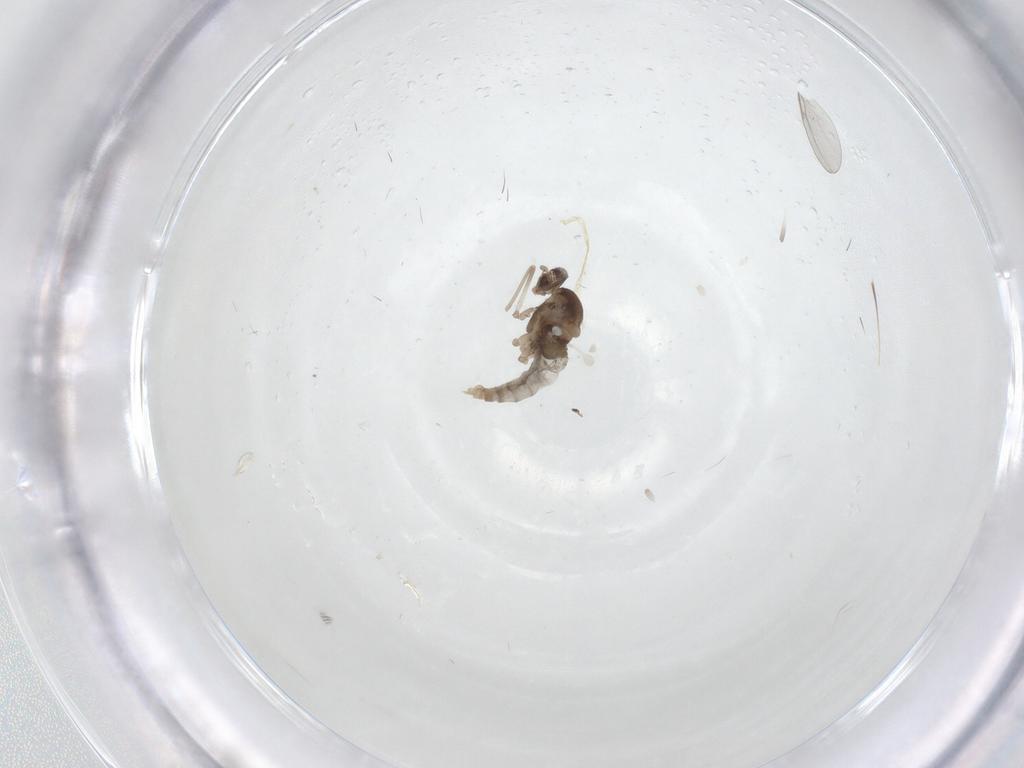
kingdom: Animalia
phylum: Arthropoda
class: Insecta
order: Diptera
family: Cecidomyiidae
